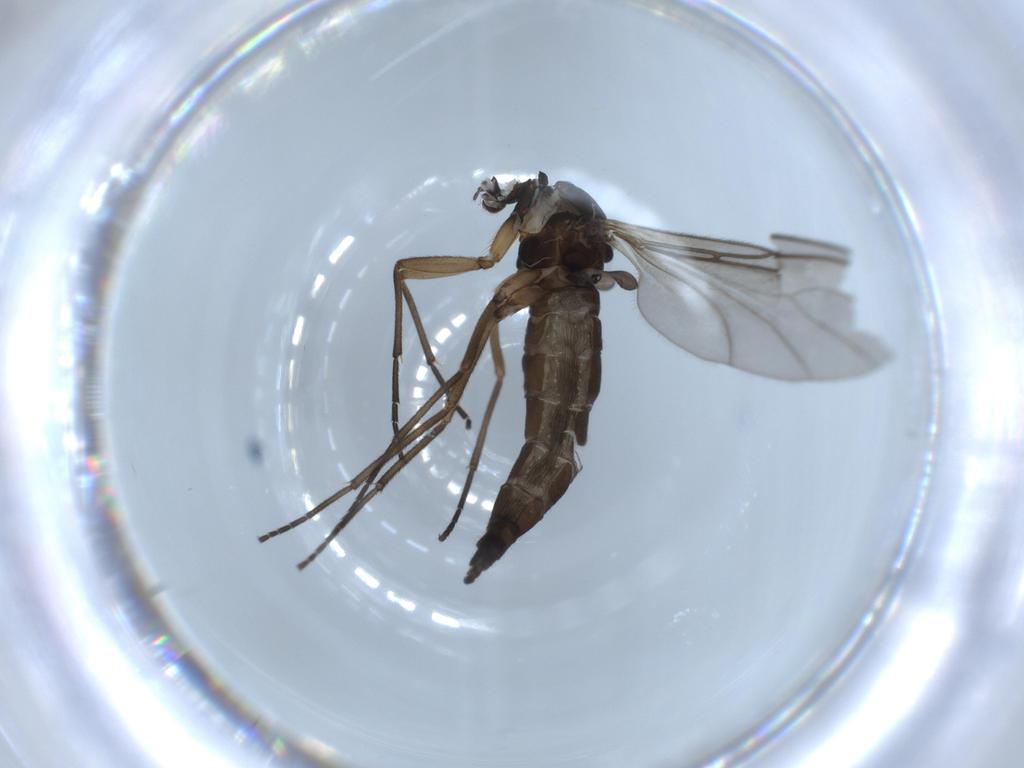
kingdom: Animalia
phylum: Arthropoda
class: Insecta
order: Diptera
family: Sciaridae
